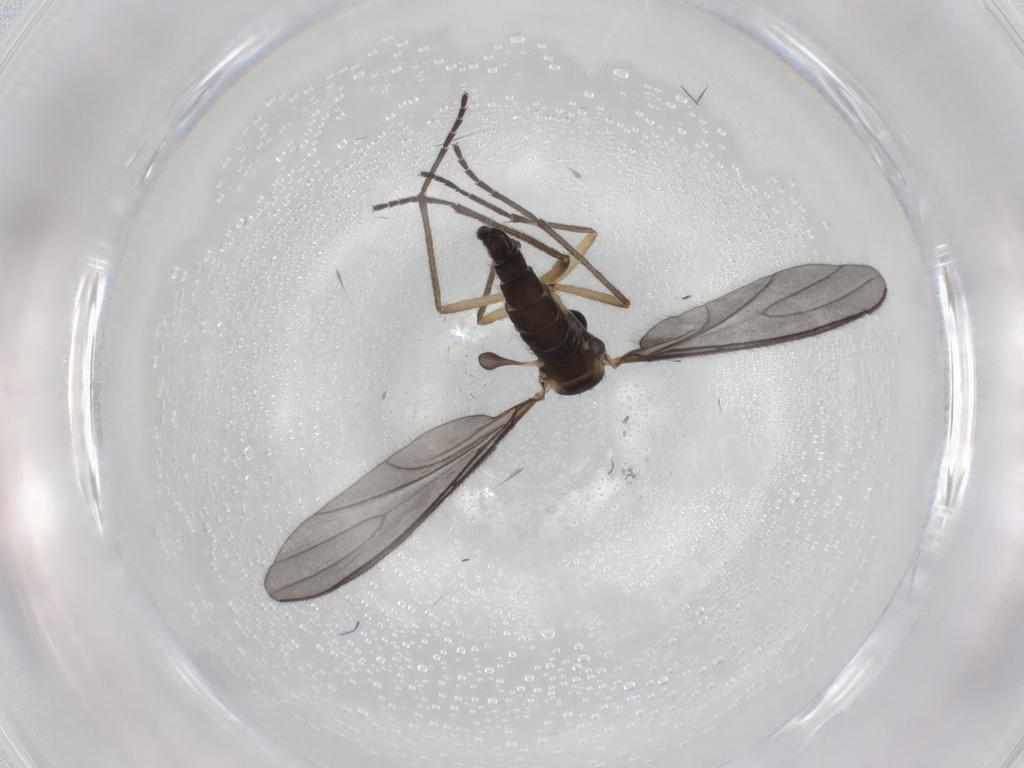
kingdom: Animalia
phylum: Arthropoda
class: Insecta
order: Diptera
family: Sciaridae
